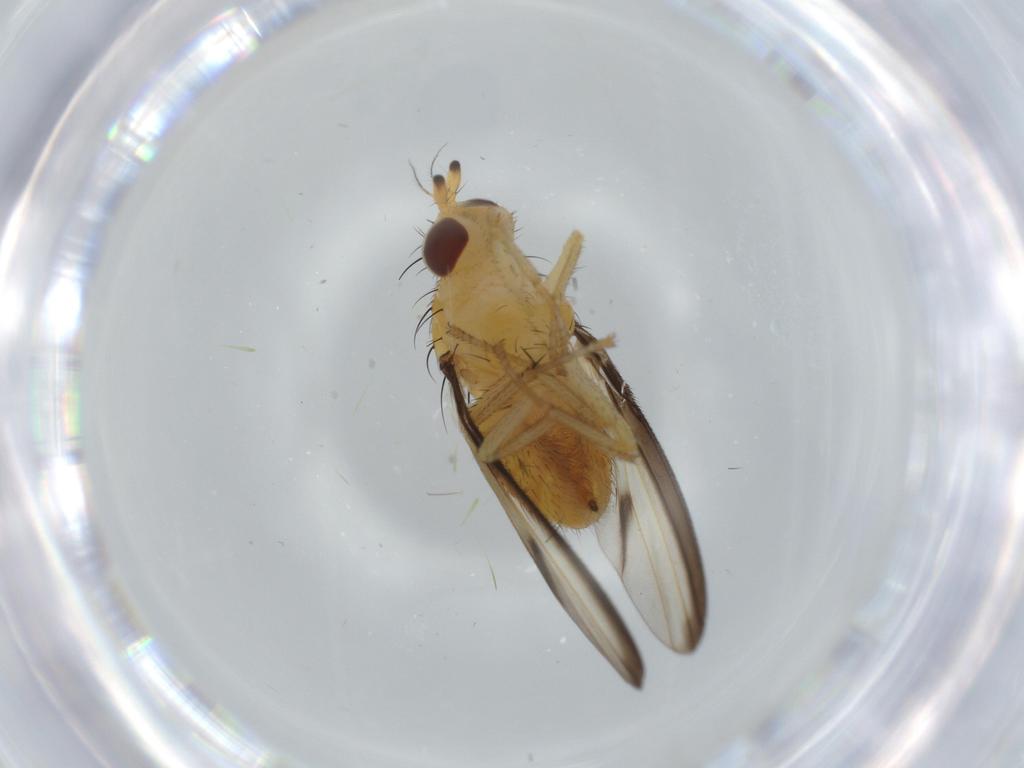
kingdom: Animalia
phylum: Arthropoda
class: Insecta
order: Diptera
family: Lauxaniidae
